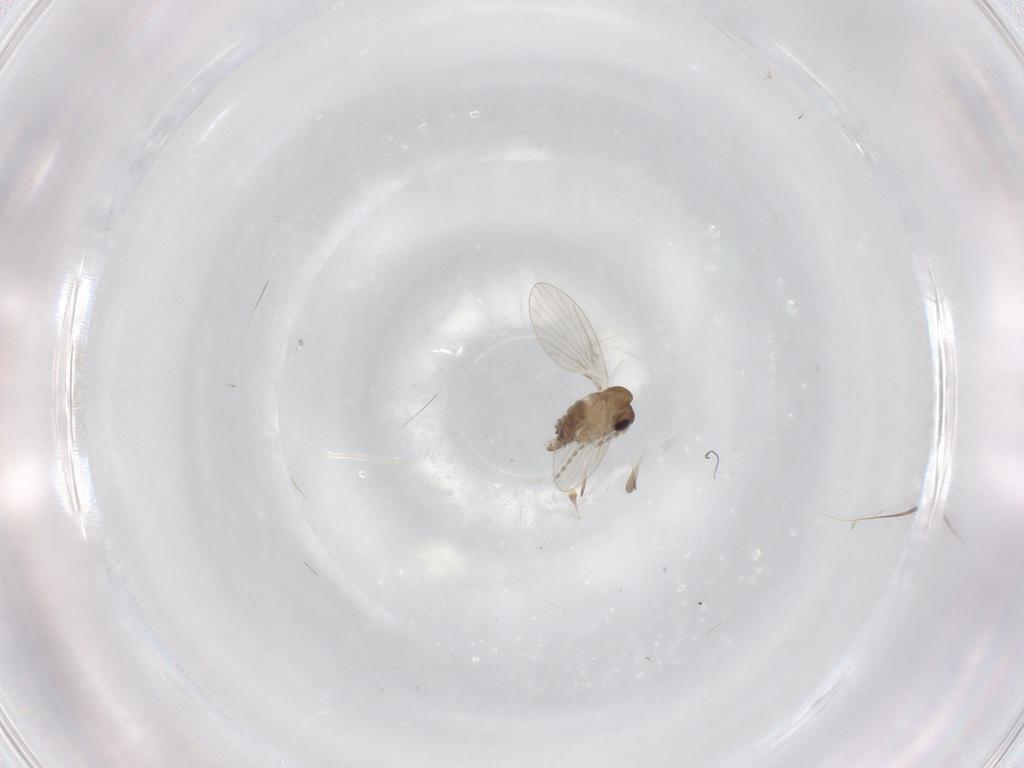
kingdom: Animalia
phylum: Arthropoda
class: Insecta
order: Diptera
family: Psychodidae
